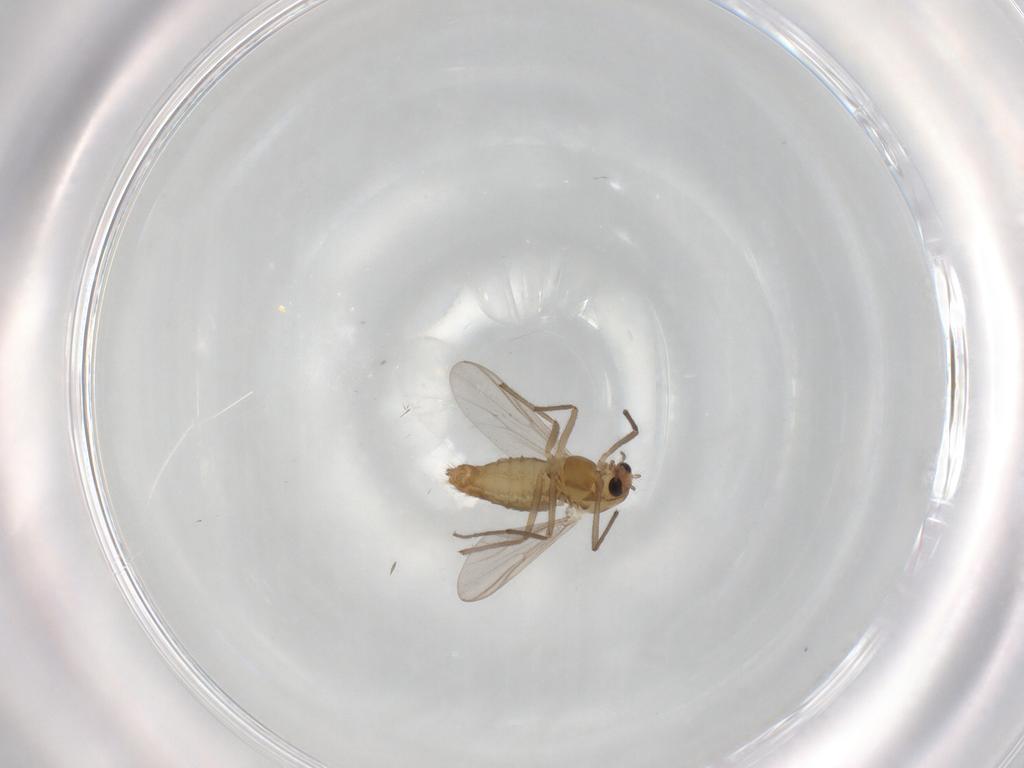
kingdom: Animalia
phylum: Arthropoda
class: Insecta
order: Diptera
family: Chironomidae
